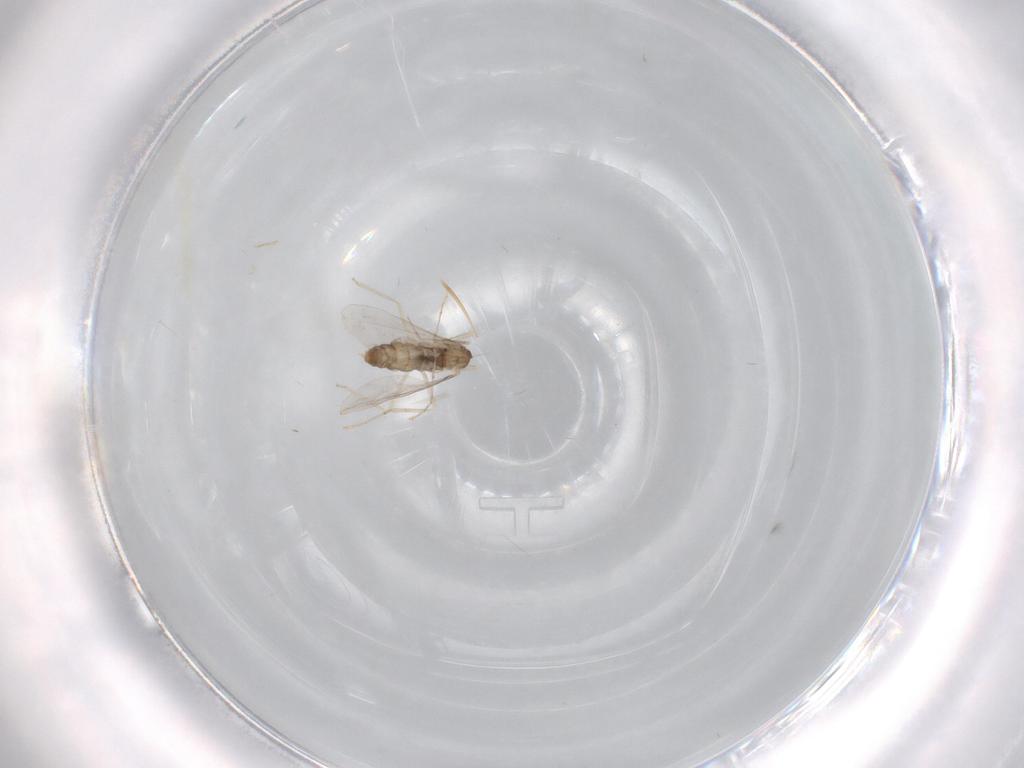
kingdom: Animalia
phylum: Arthropoda
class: Insecta
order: Diptera
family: Cecidomyiidae
